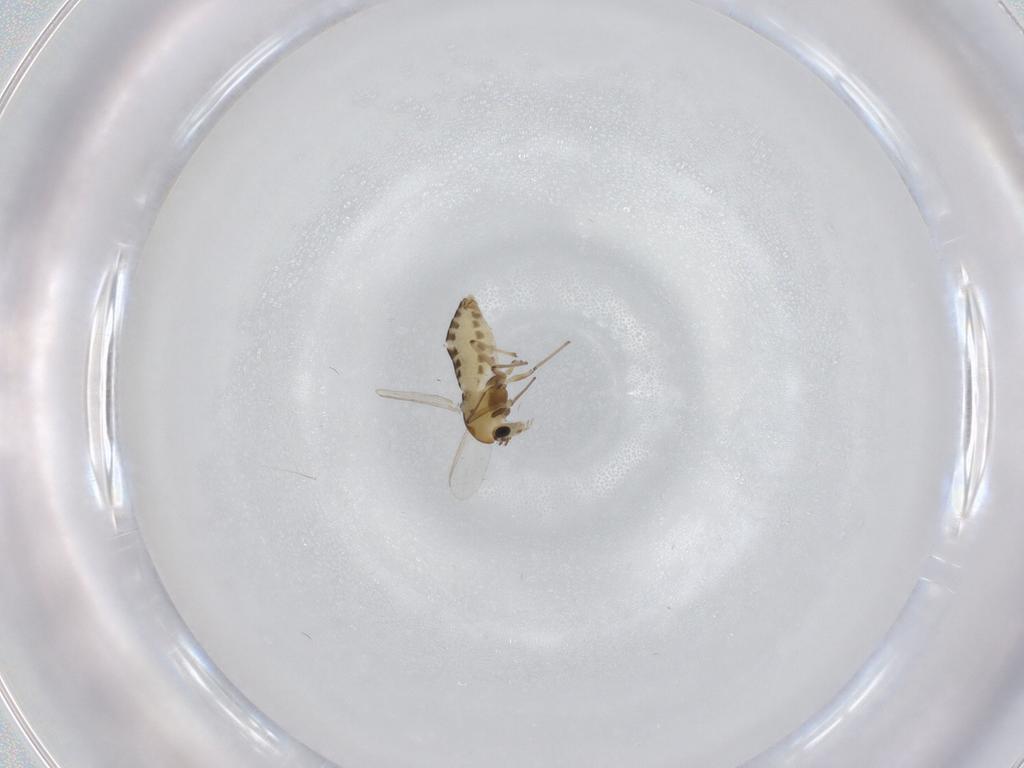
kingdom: Animalia
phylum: Arthropoda
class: Insecta
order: Diptera
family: Chironomidae
